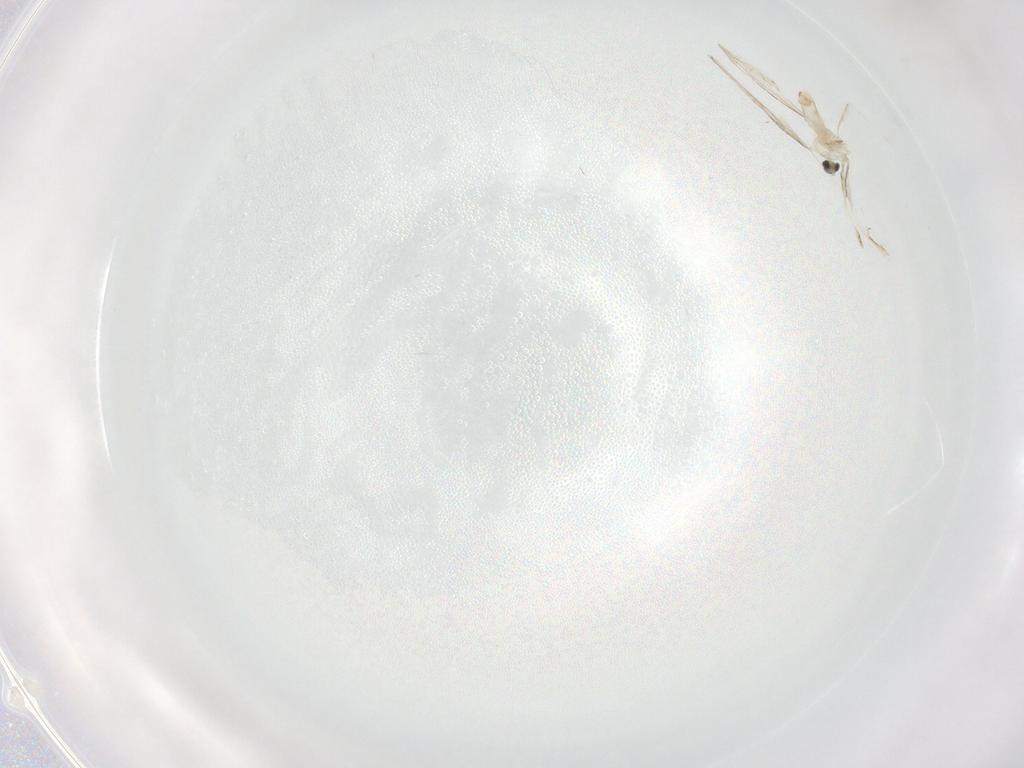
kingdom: Animalia
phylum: Arthropoda
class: Insecta
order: Diptera
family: Cecidomyiidae
